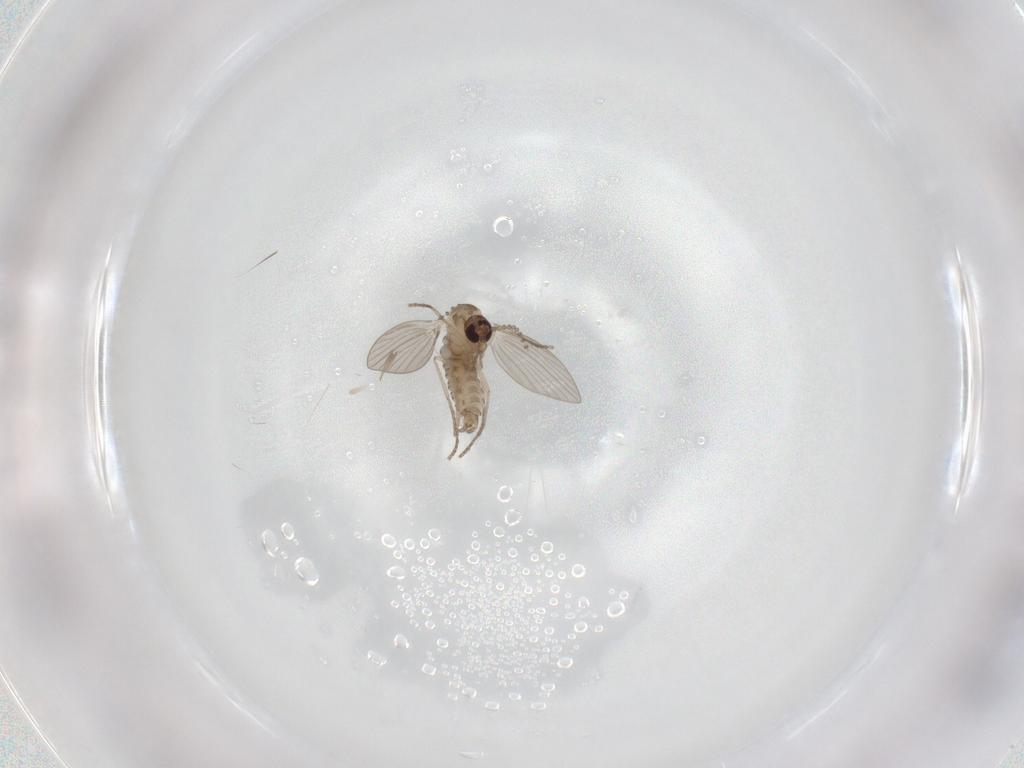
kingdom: Animalia
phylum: Arthropoda
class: Insecta
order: Diptera
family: Psychodidae
